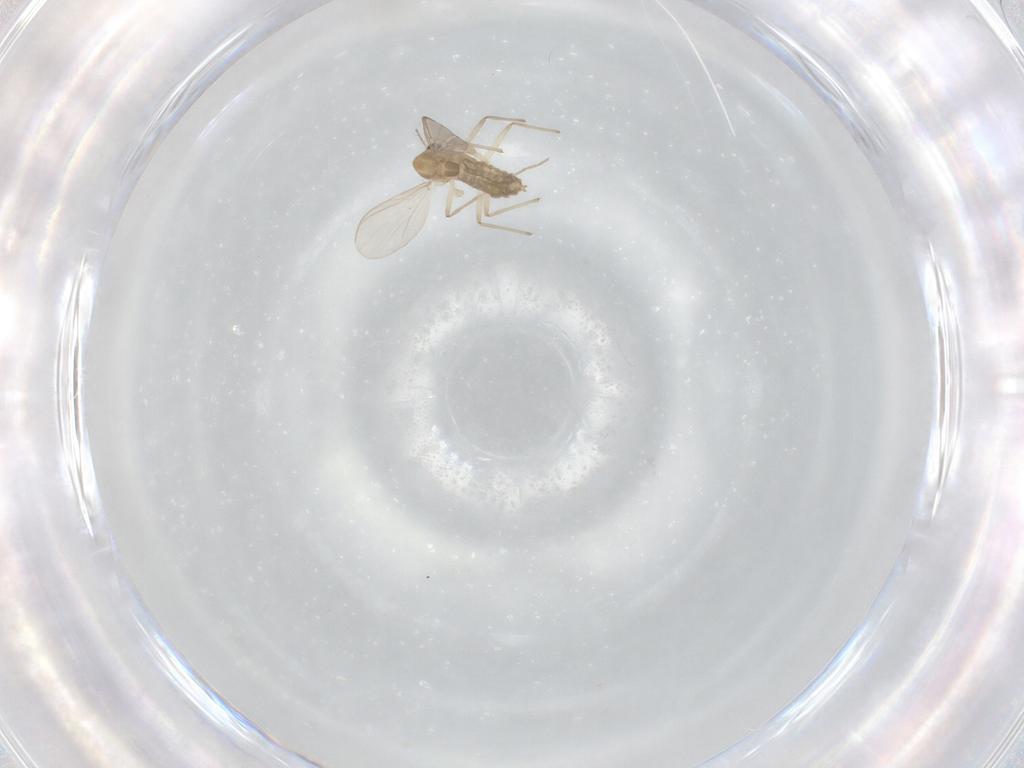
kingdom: Animalia
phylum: Arthropoda
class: Insecta
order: Diptera
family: Chironomidae
